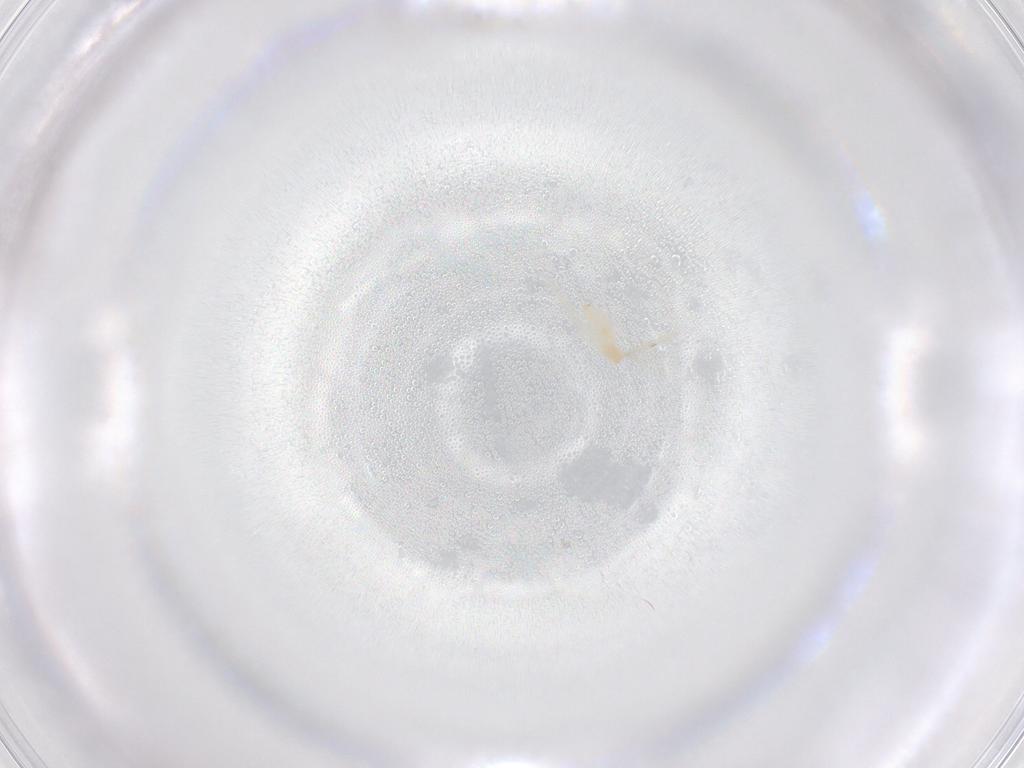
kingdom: Animalia
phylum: Arthropoda
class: Insecta
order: Diptera
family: Cecidomyiidae
